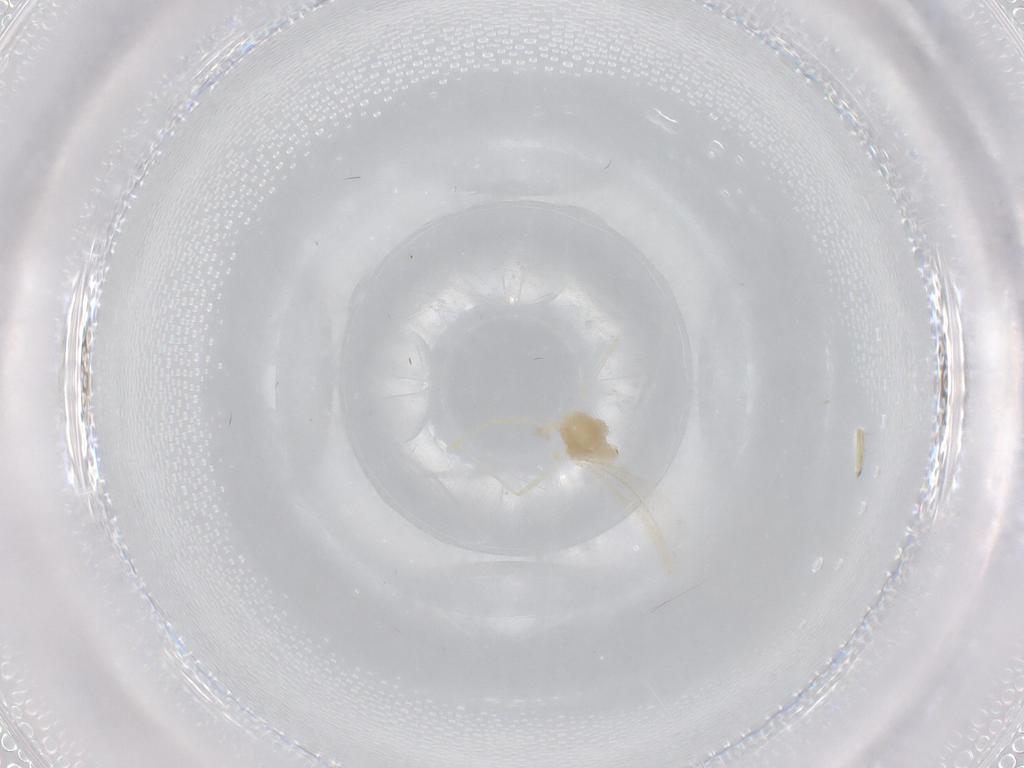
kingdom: Animalia
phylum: Arthropoda
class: Insecta
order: Diptera
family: Cecidomyiidae
